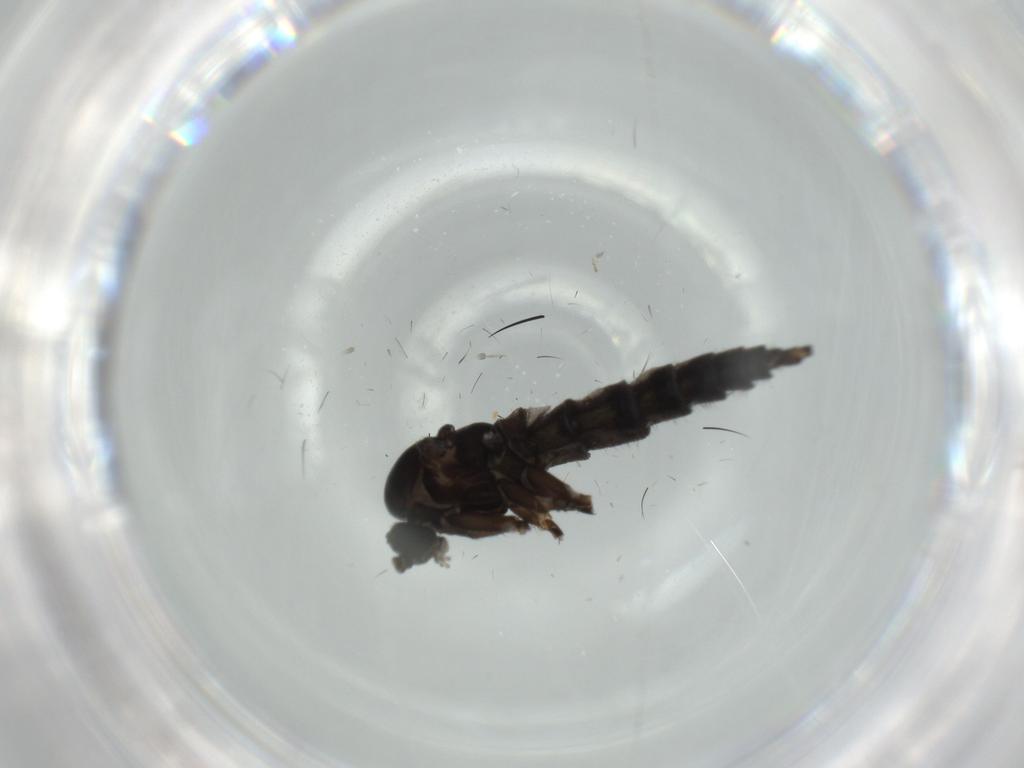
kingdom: Animalia
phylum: Arthropoda
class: Insecta
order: Diptera
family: Sciaridae
